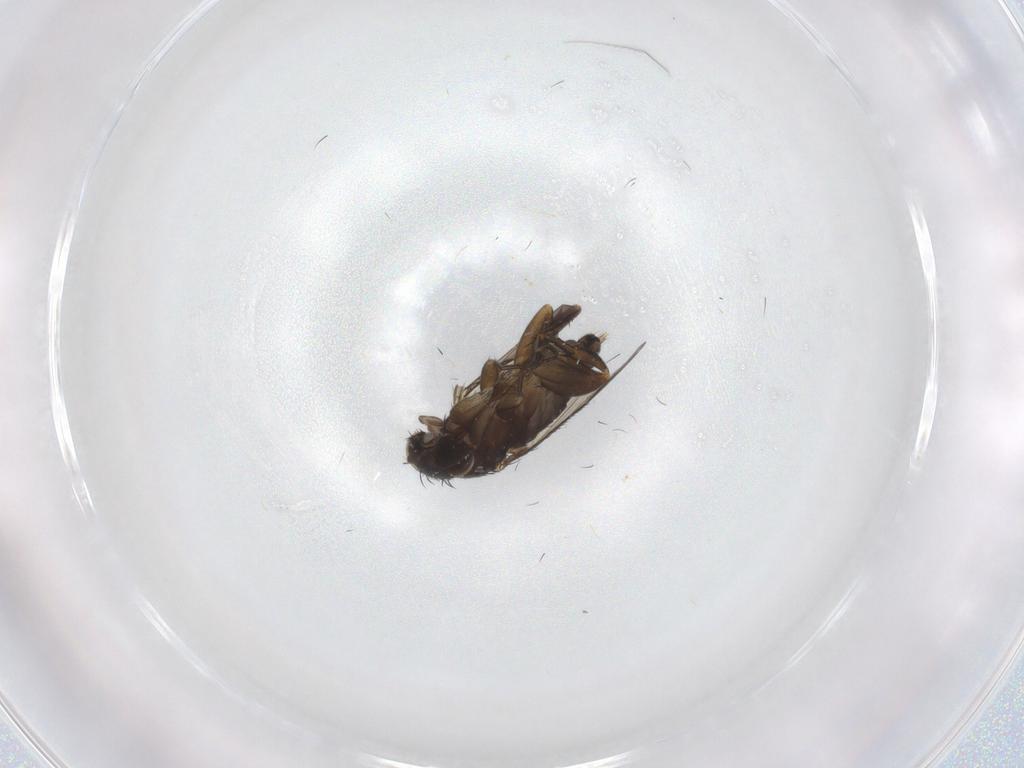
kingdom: Animalia
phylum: Arthropoda
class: Insecta
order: Diptera
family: Phoridae
